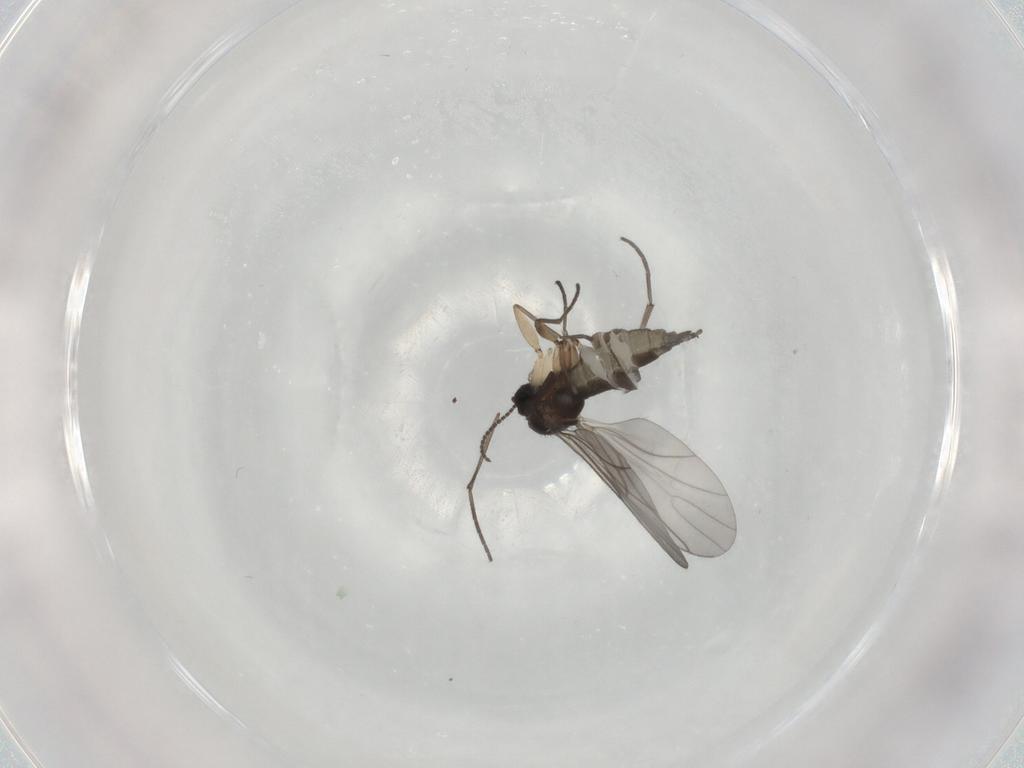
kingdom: Animalia
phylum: Arthropoda
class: Insecta
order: Diptera
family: Sciaridae
